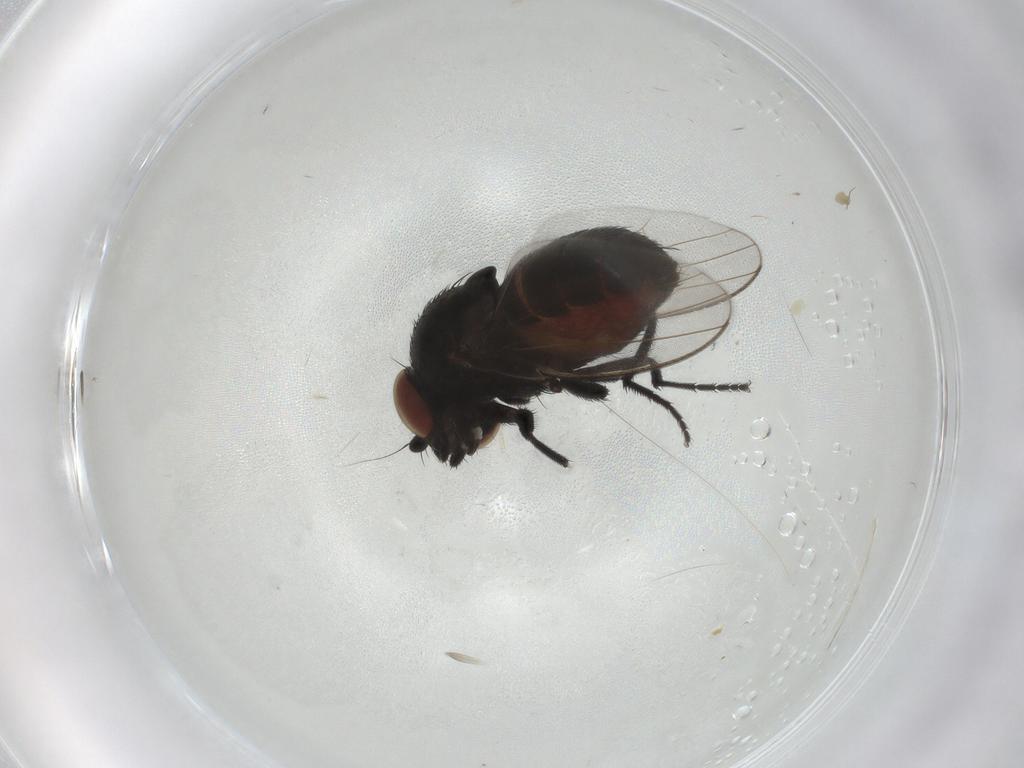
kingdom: Animalia
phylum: Arthropoda
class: Insecta
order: Diptera
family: Milichiidae
